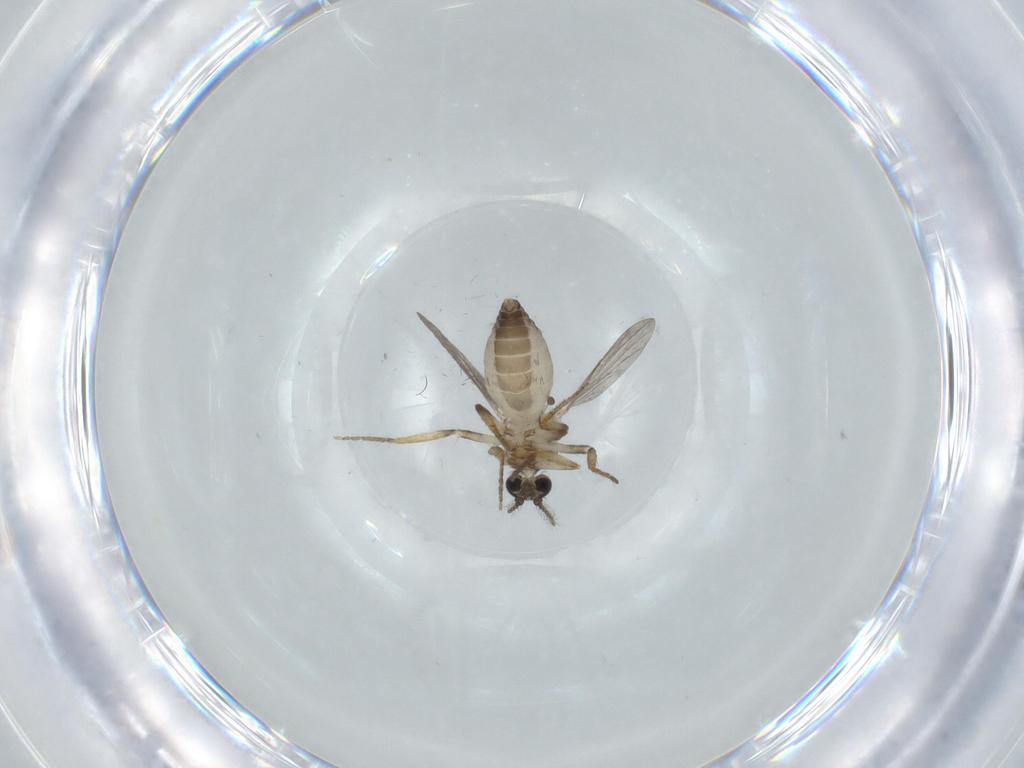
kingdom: Animalia
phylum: Arthropoda
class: Insecta
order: Diptera
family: Ceratopogonidae
